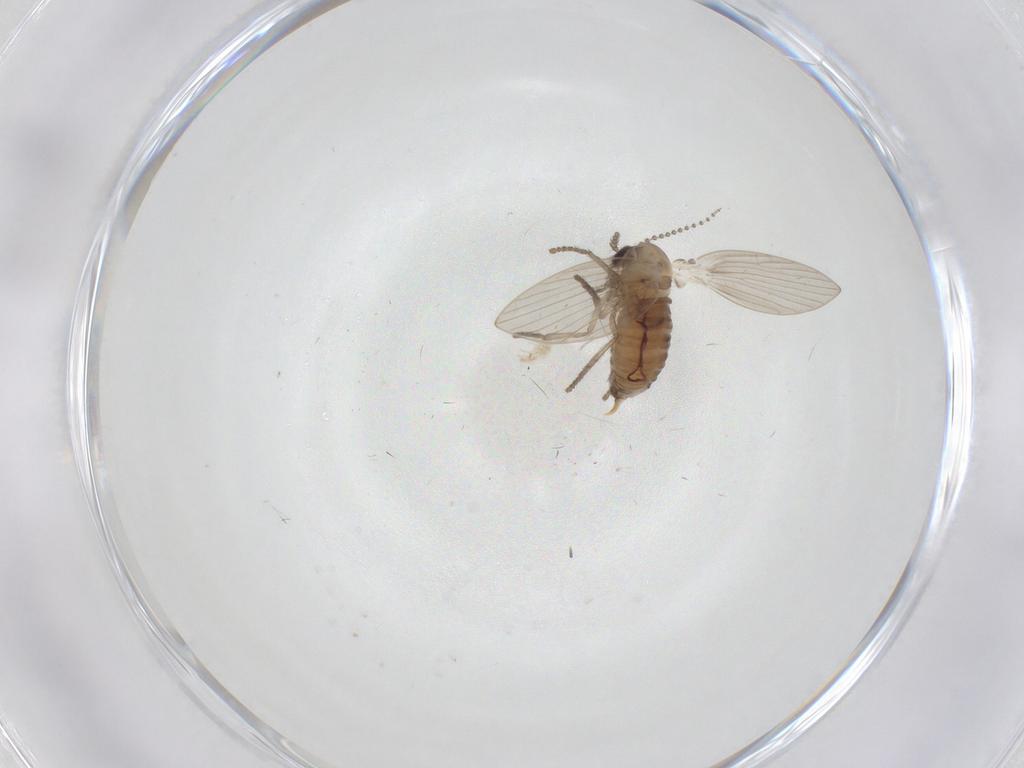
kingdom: Animalia
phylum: Arthropoda
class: Insecta
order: Diptera
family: Psychodidae
